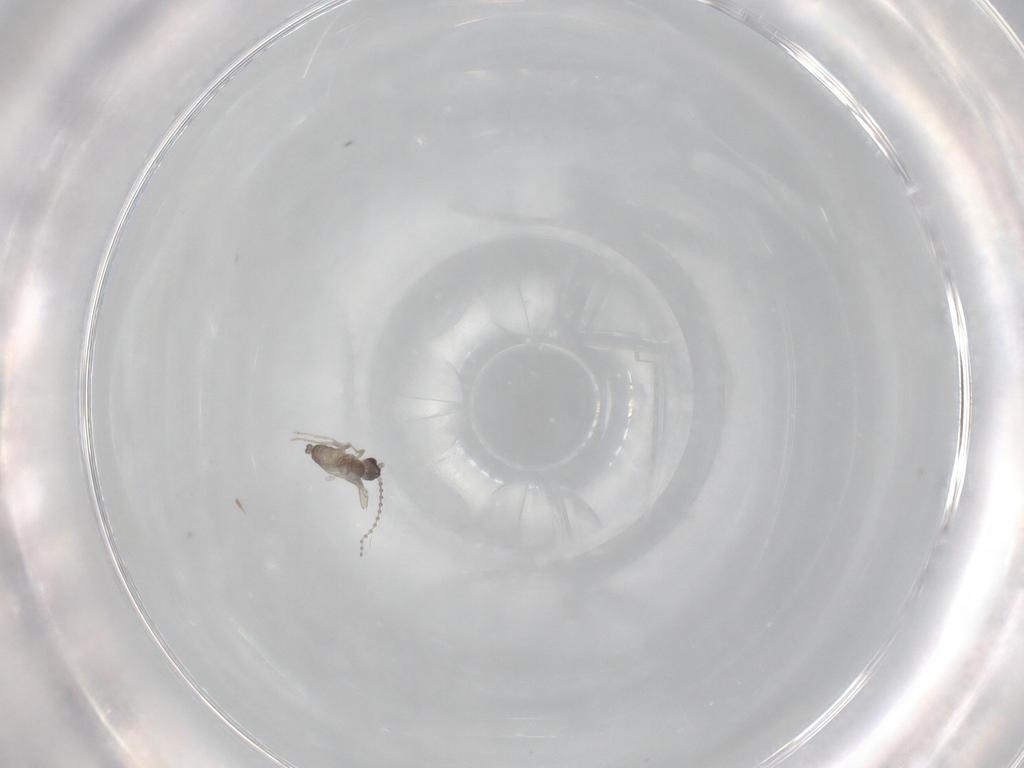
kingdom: Animalia
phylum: Arthropoda
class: Insecta
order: Diptera
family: Chironomidae
